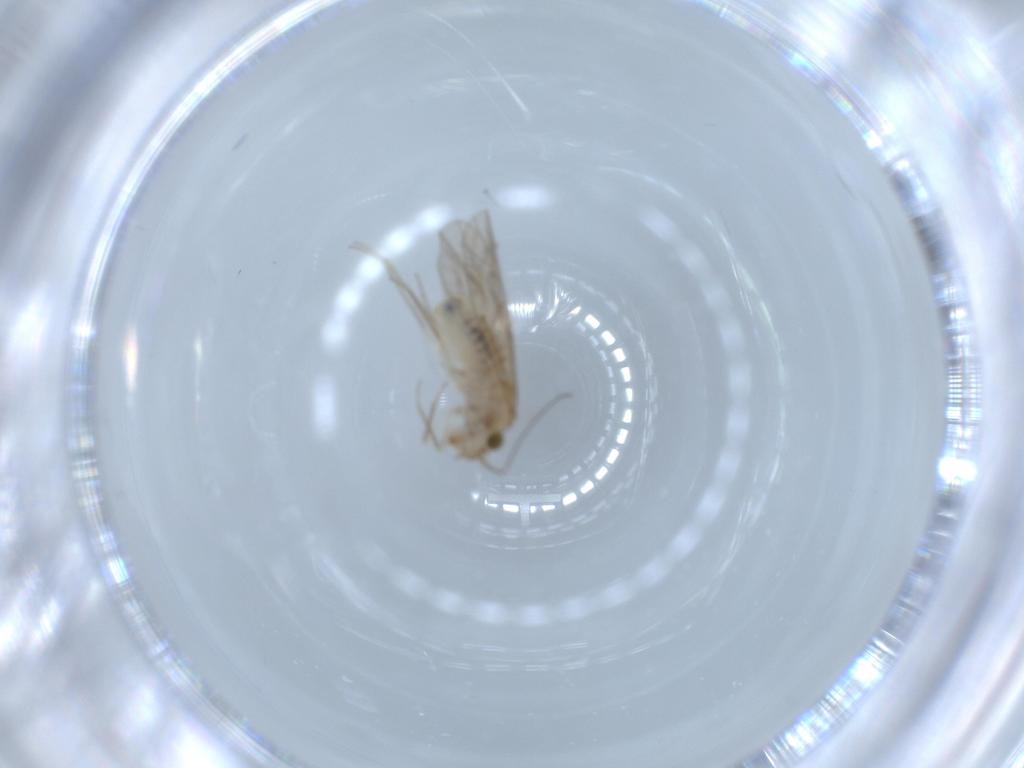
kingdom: Animalia
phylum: Arthropoda
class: Insecta
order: Psocodea
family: Lachesillidae
